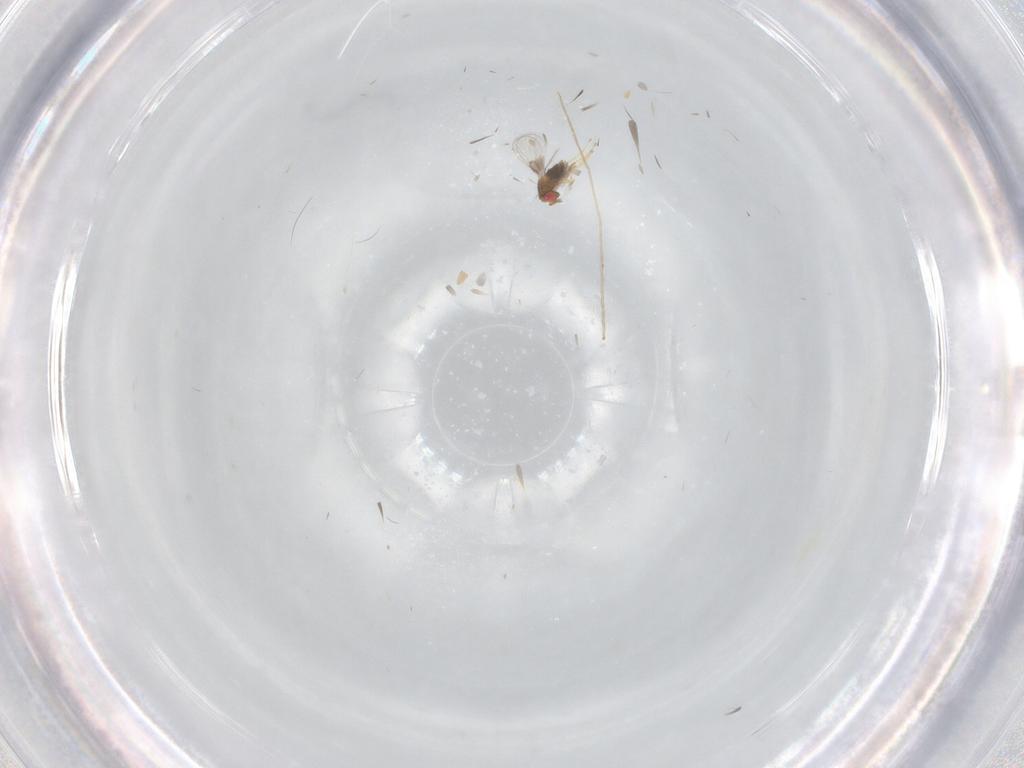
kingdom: Animalia
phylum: Arthropoda
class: Insecta
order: Hymenoptera
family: Trichogrammatidae
